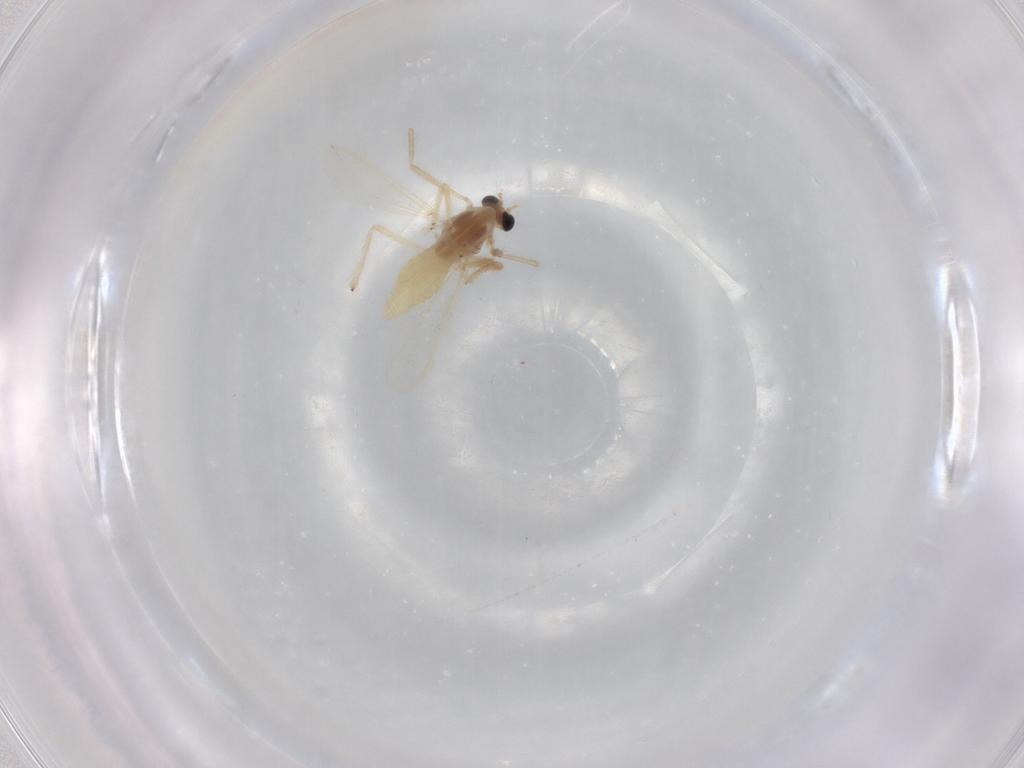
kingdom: Animalia
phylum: Arthropoda
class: Insecta
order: Diptera
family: Chironomidae
